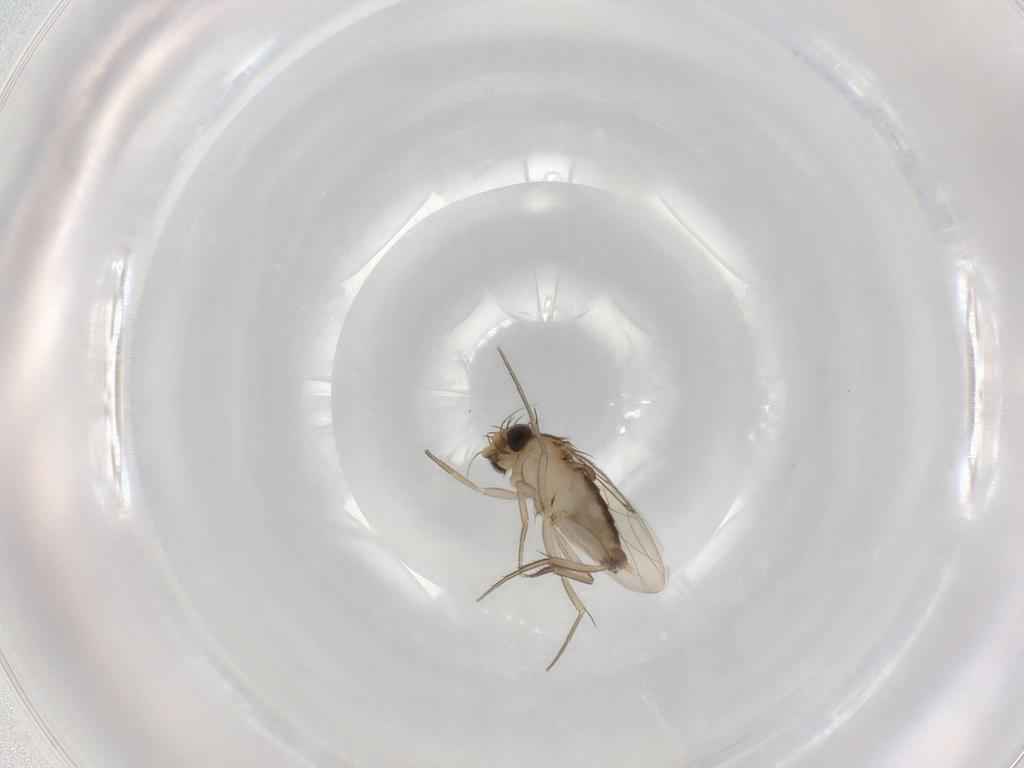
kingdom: Animalia
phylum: Arthropoda
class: Insecta
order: Diptera
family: Phoridae
